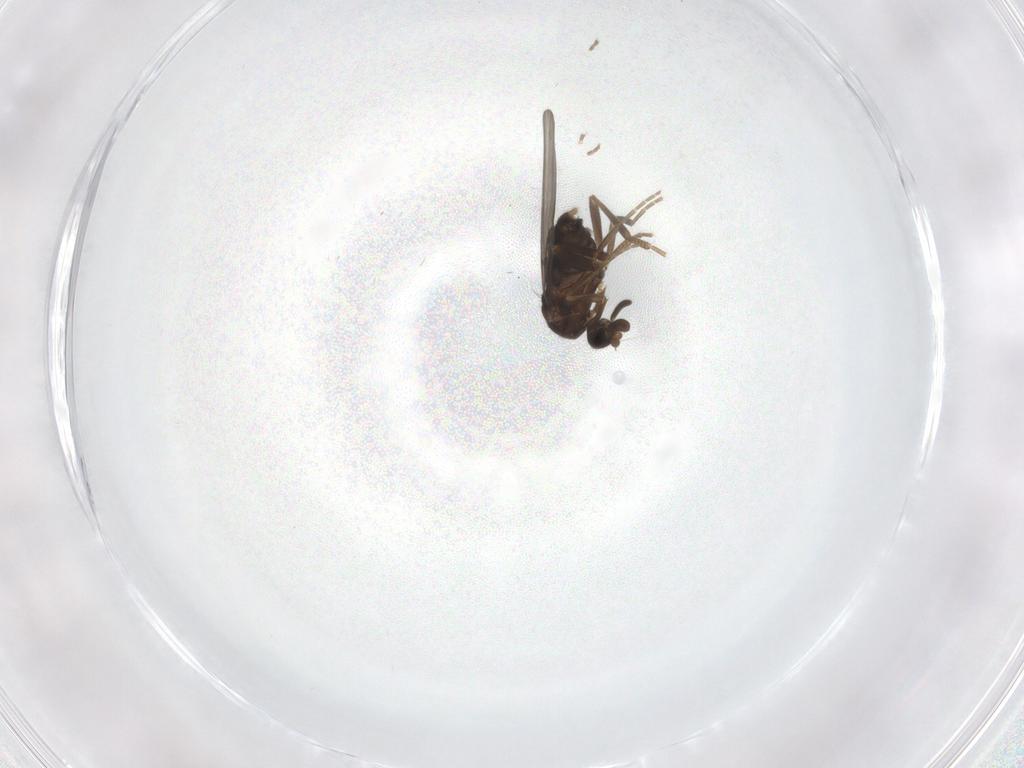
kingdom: Animalia
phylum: Arthropoda
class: Insecta
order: Diptera
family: Phoridae
